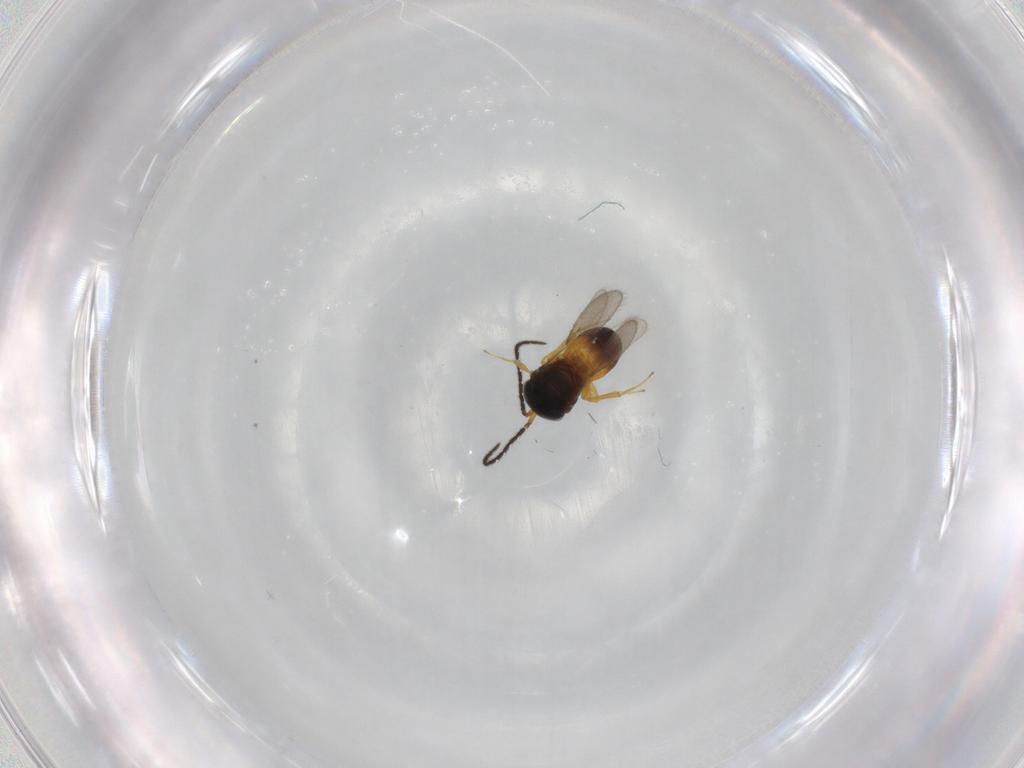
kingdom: Animalia
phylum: Arthropoda
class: Insecta
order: Hymenoptera
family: Scelionidae
